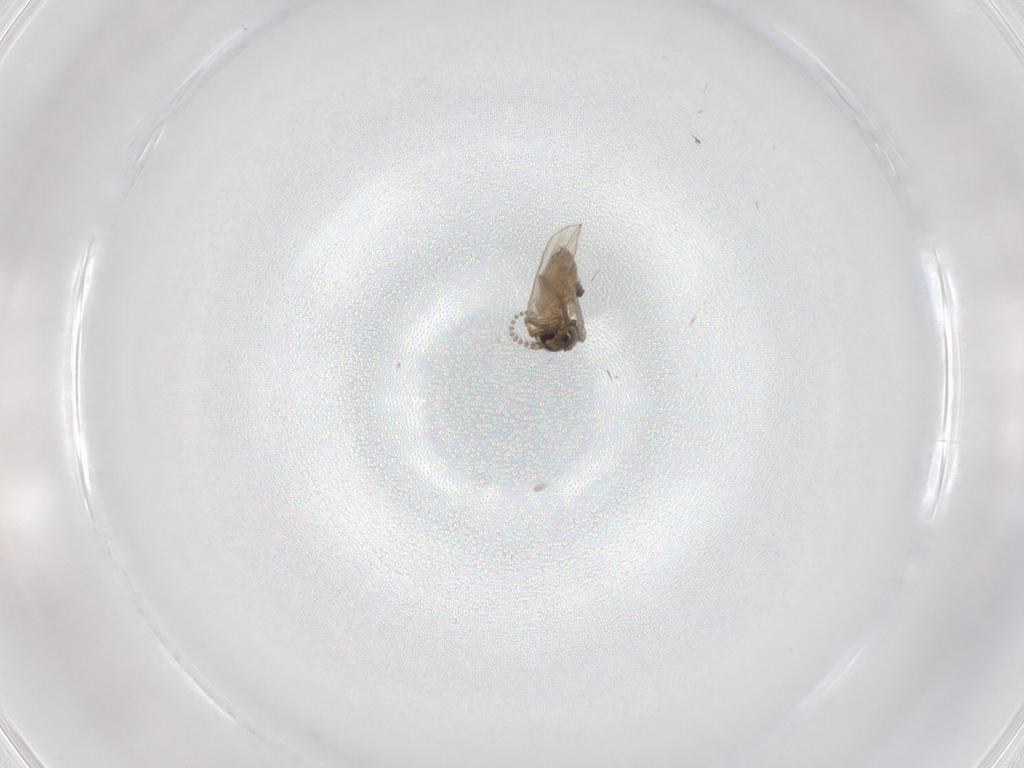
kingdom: Animalia
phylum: Arthropoda
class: Insecta
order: Diptera
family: Psychodidae
